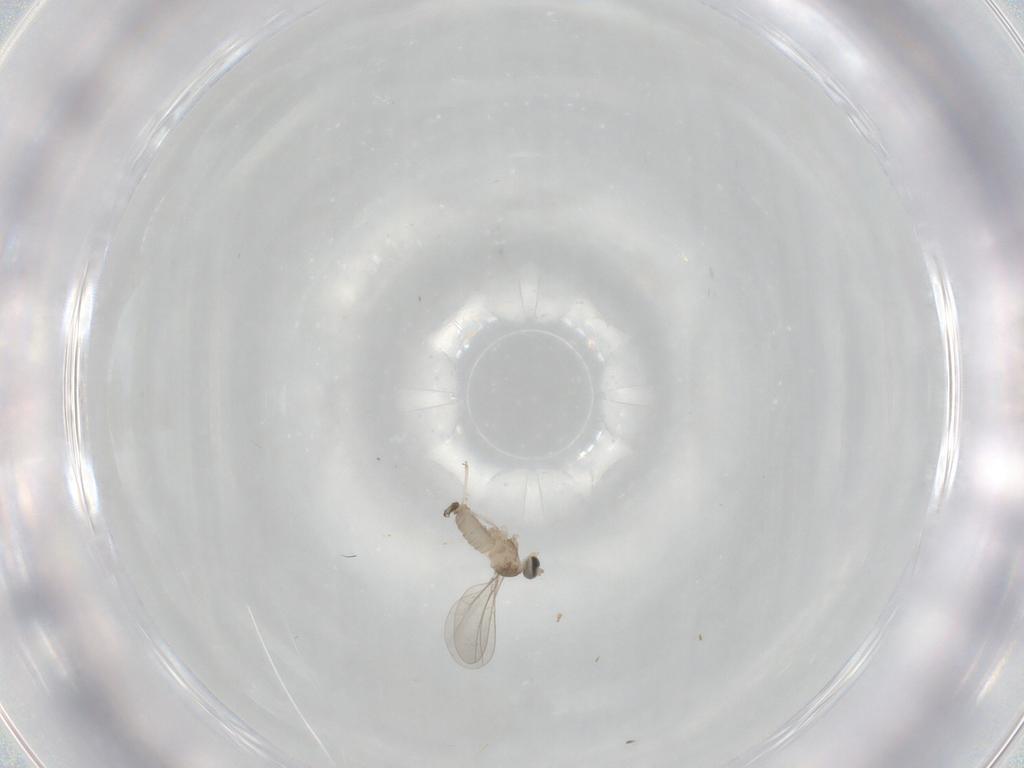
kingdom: Animalia
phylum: Arthropoda
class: Insecta
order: Diptera
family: Cecidomyiidae
